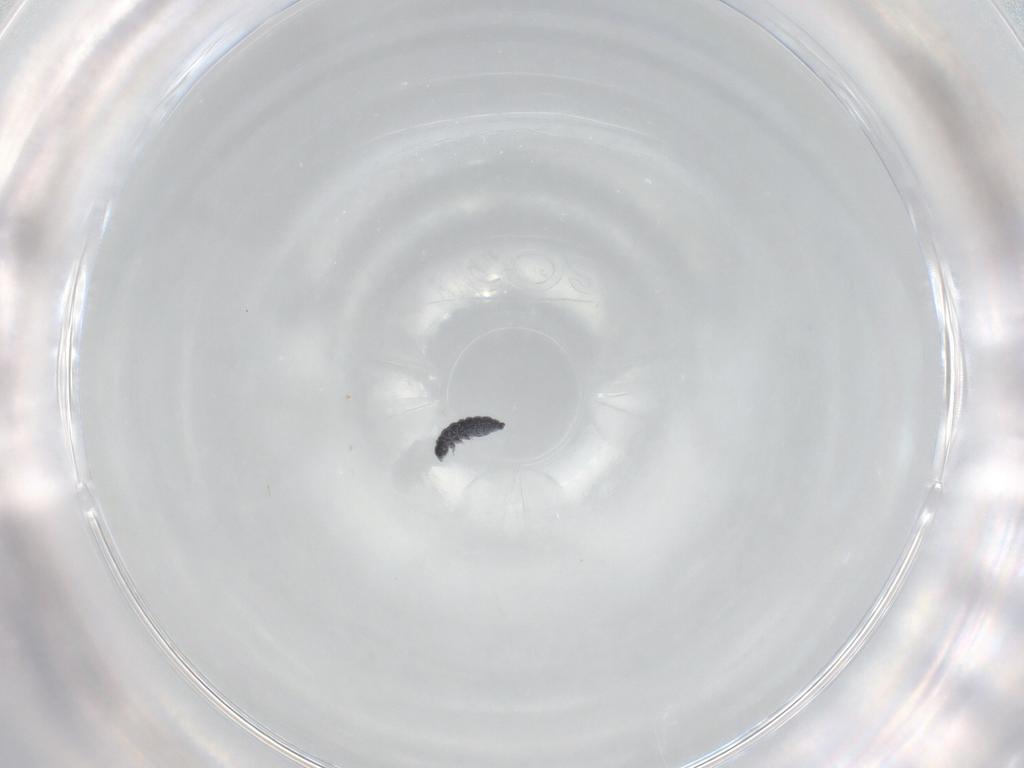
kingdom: Animalia
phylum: Arthropoda
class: Collembola
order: Poduromorpha
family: Neanuridae
